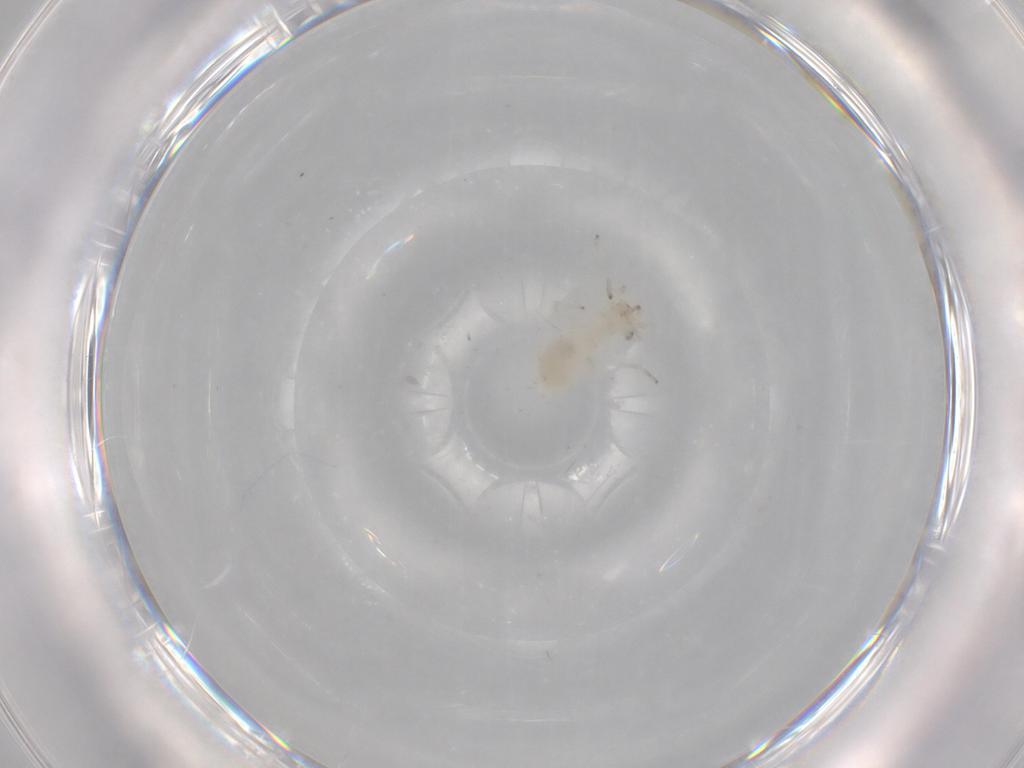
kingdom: Animalia
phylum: Arthropoda
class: Insecta
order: Psocodea
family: Caeciliusidae
